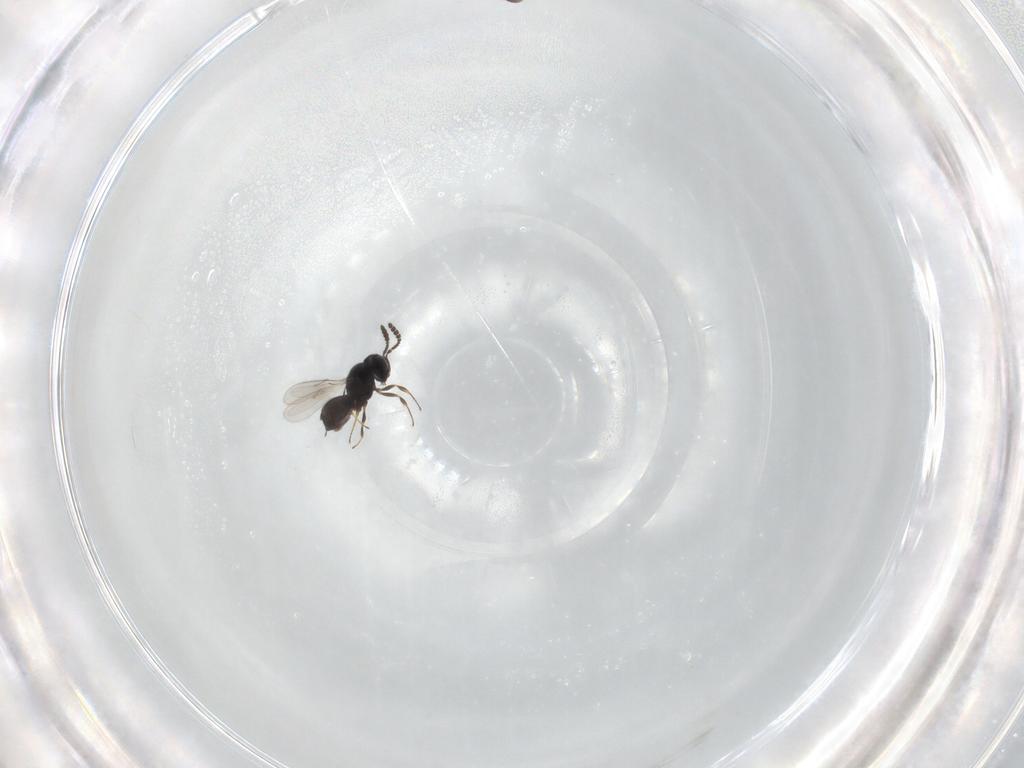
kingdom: Animalia
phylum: Arthropoda
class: Insecta
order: Hymenoptera
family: Scelionidae
